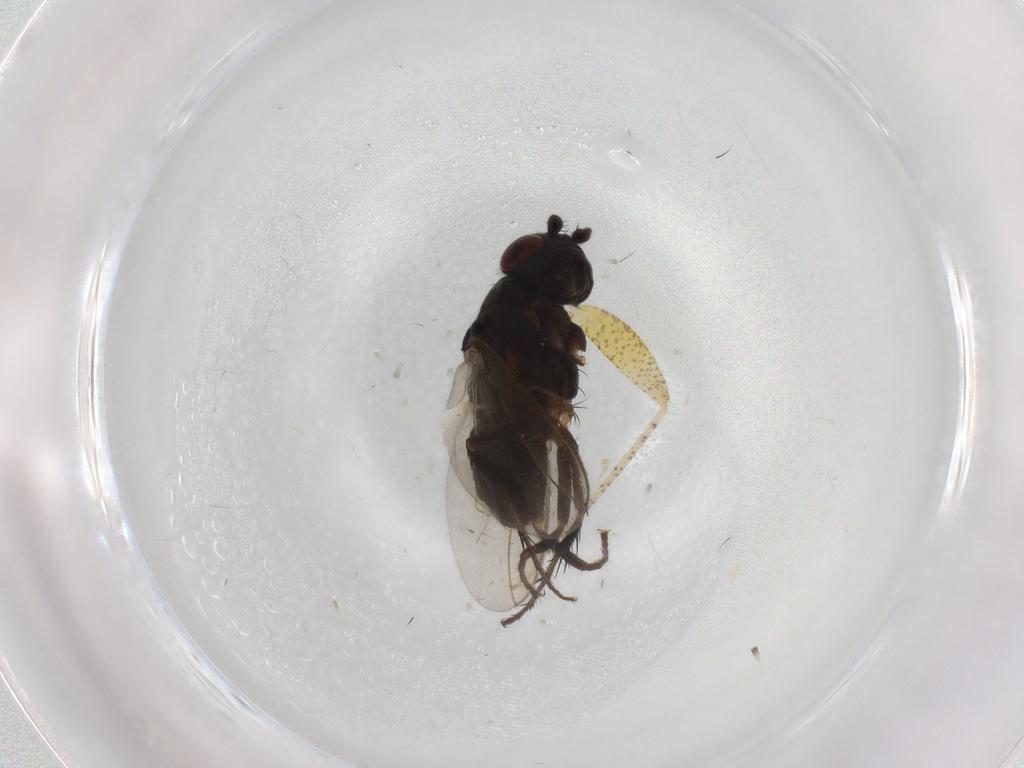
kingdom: Animalia
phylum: Arthropoda
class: Insecta
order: Diptera
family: Sphaeroceridae
